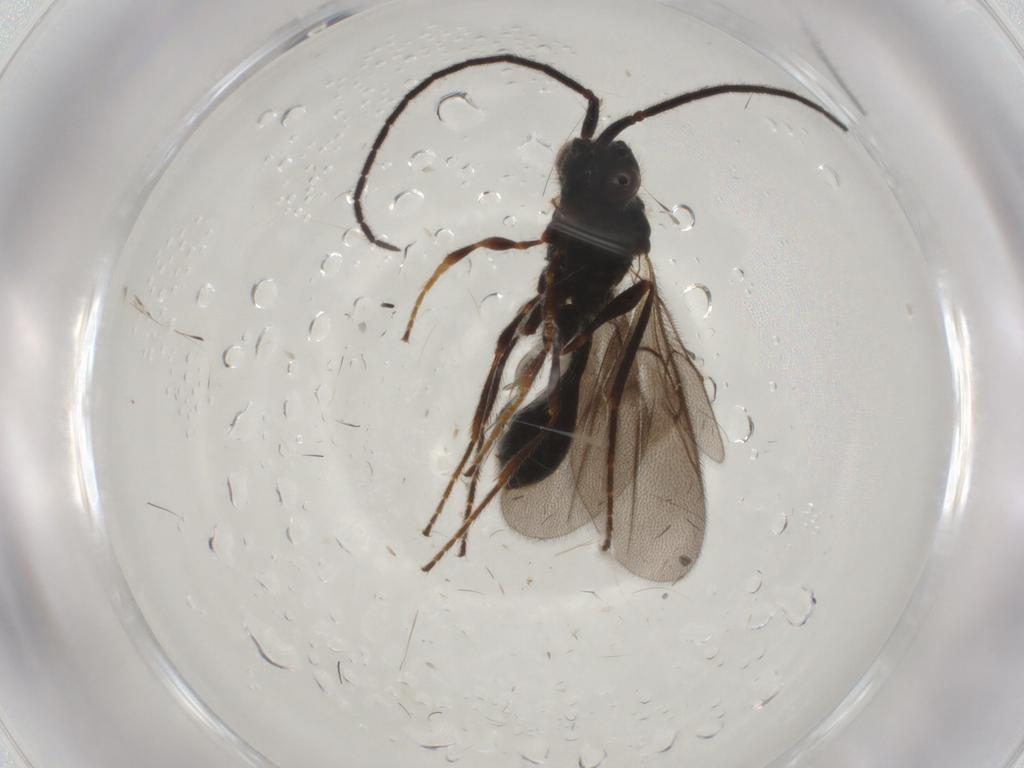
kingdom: Animalia
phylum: Arthropoda
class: Insecta
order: Hymenoptera
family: Diapriidae
